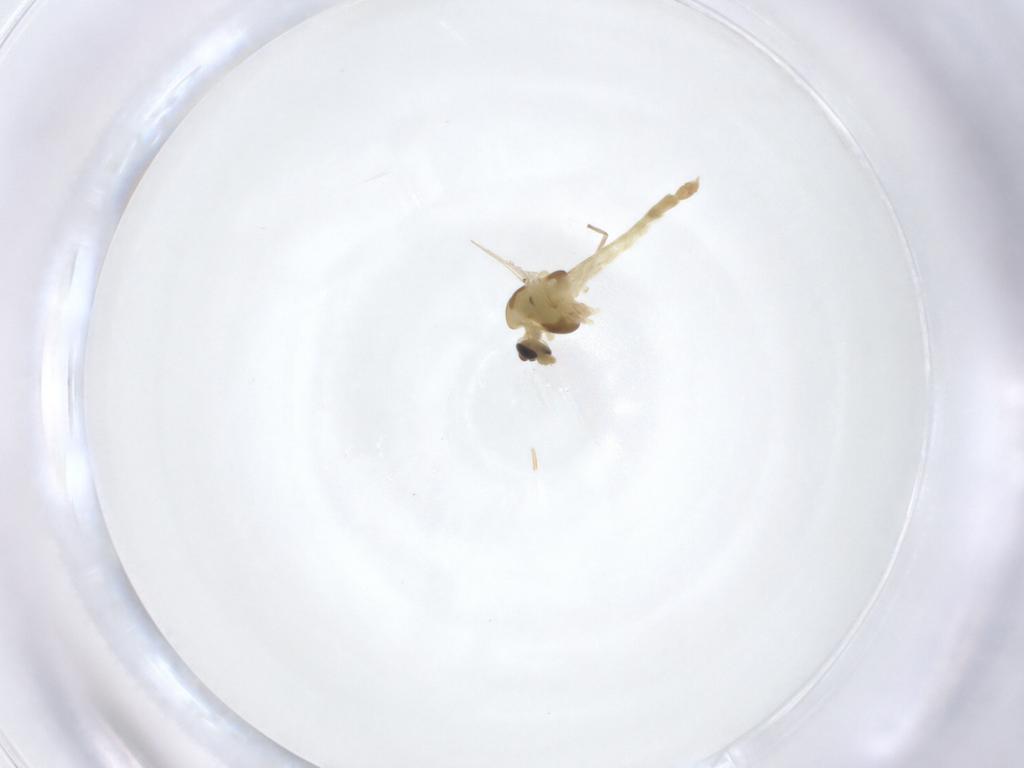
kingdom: Animalia
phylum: Arthropoda
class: Insecta
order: Diptera
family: Chironomidae
